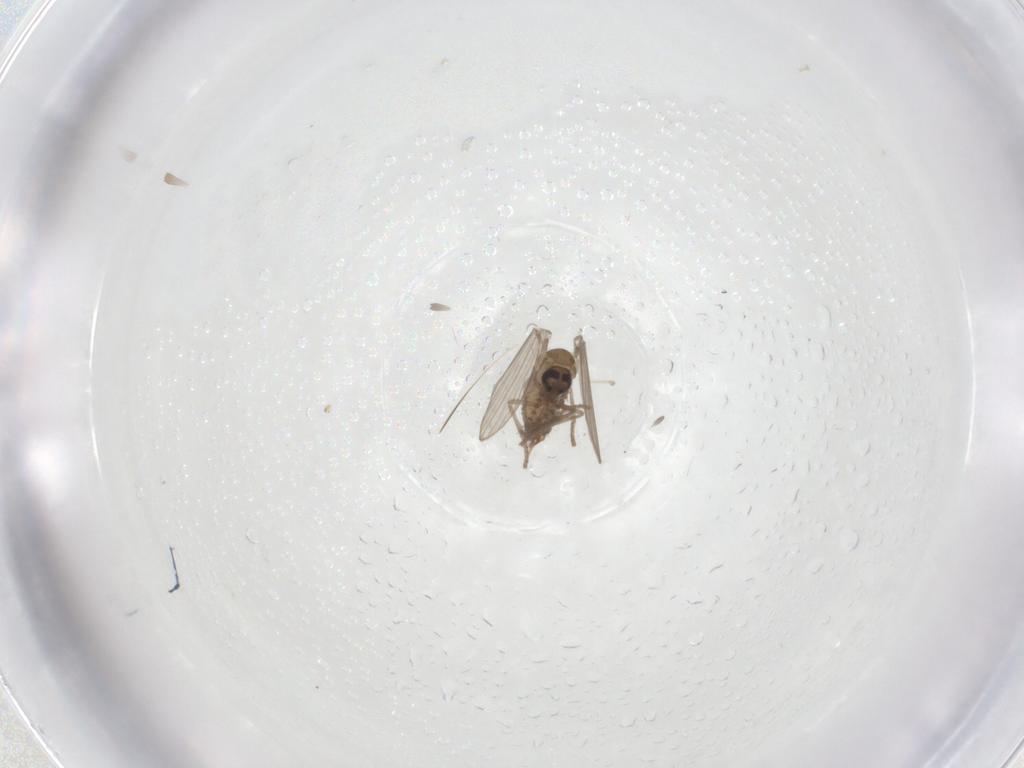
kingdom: Animalia
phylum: Arthropoda
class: Insecta
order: Diptera
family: Psychodidae
